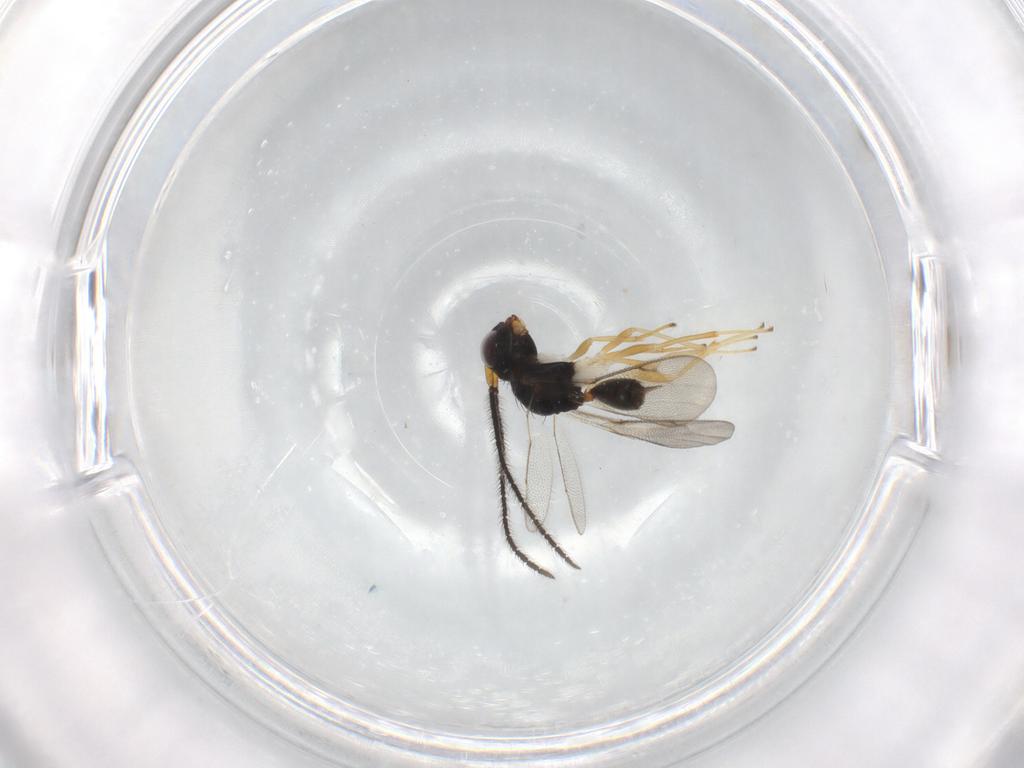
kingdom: Animalia
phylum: Arthropoda
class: Insecta
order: Hymenoptera
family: Diparidae
